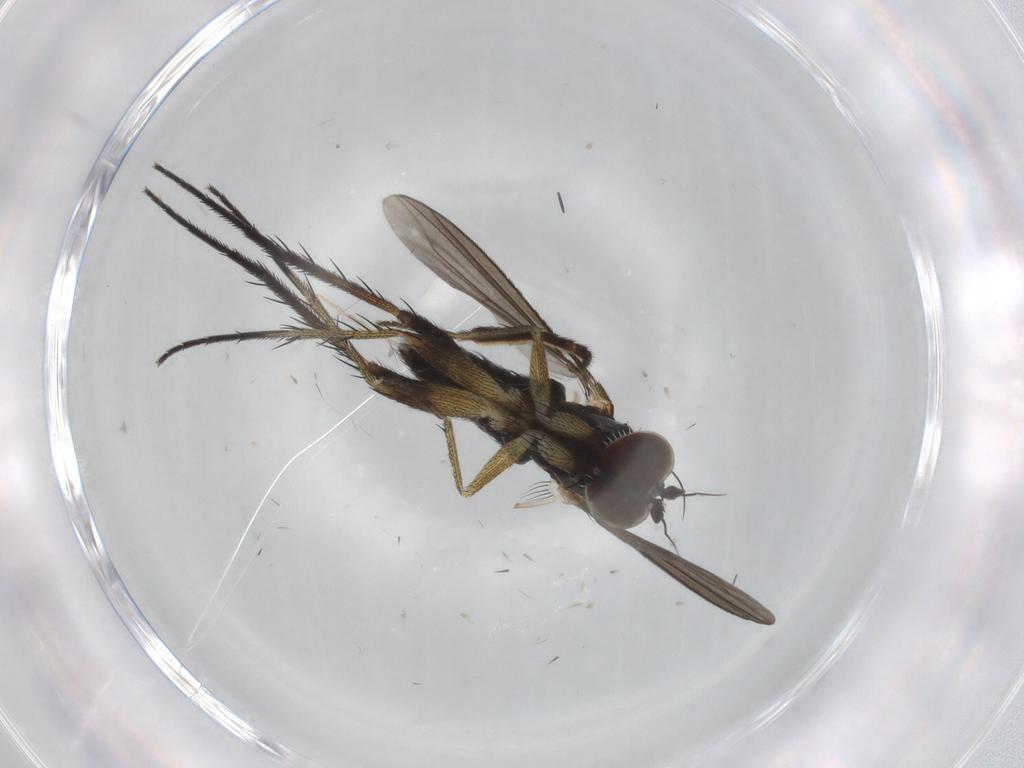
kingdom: Animalia
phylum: Arthropoda
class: Insecta
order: Diptera
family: Dolichopodidae
